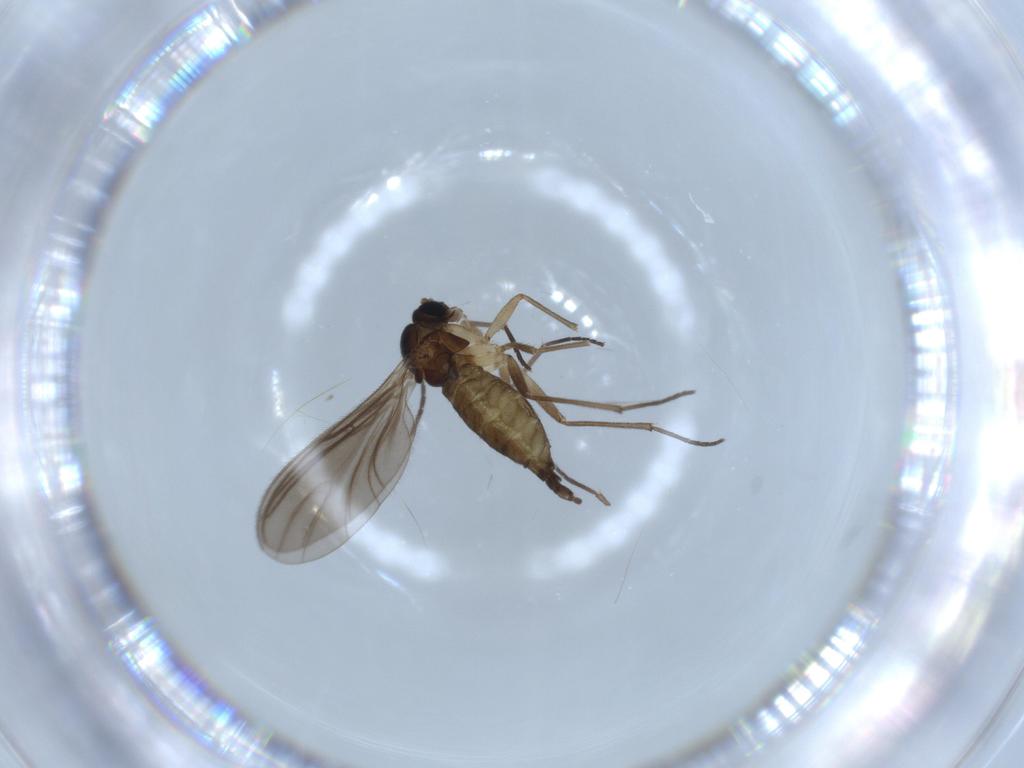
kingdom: Animalia
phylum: Arthropoda
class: Insecta
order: Diptera
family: Sciaridae
